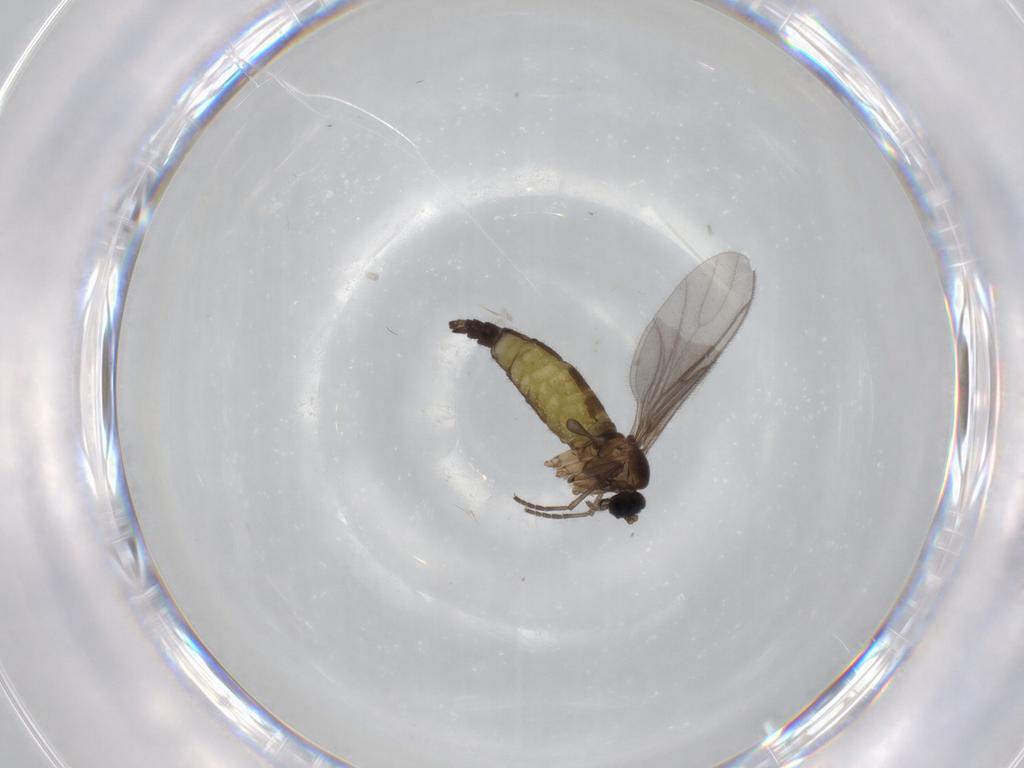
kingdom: Animalia
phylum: Arthropoda
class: Insecta
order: Diptera
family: Sciaridae
